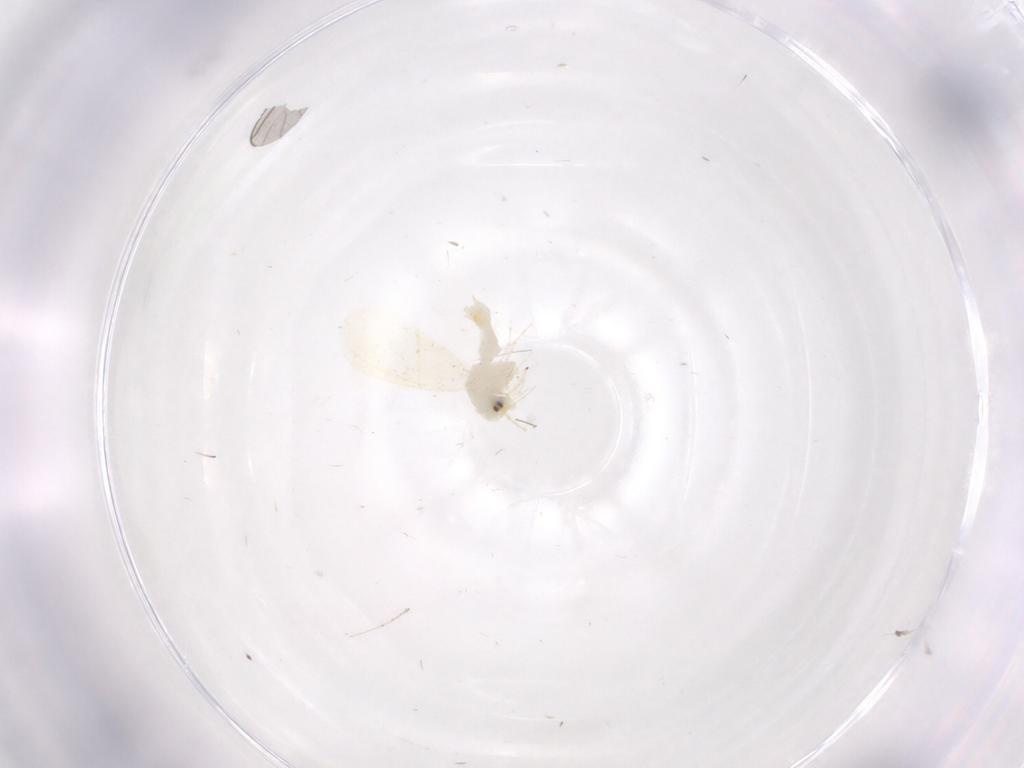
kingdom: Animalia
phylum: Arthropoda
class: Insecta
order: Hemiptera
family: Aleyrodidae
